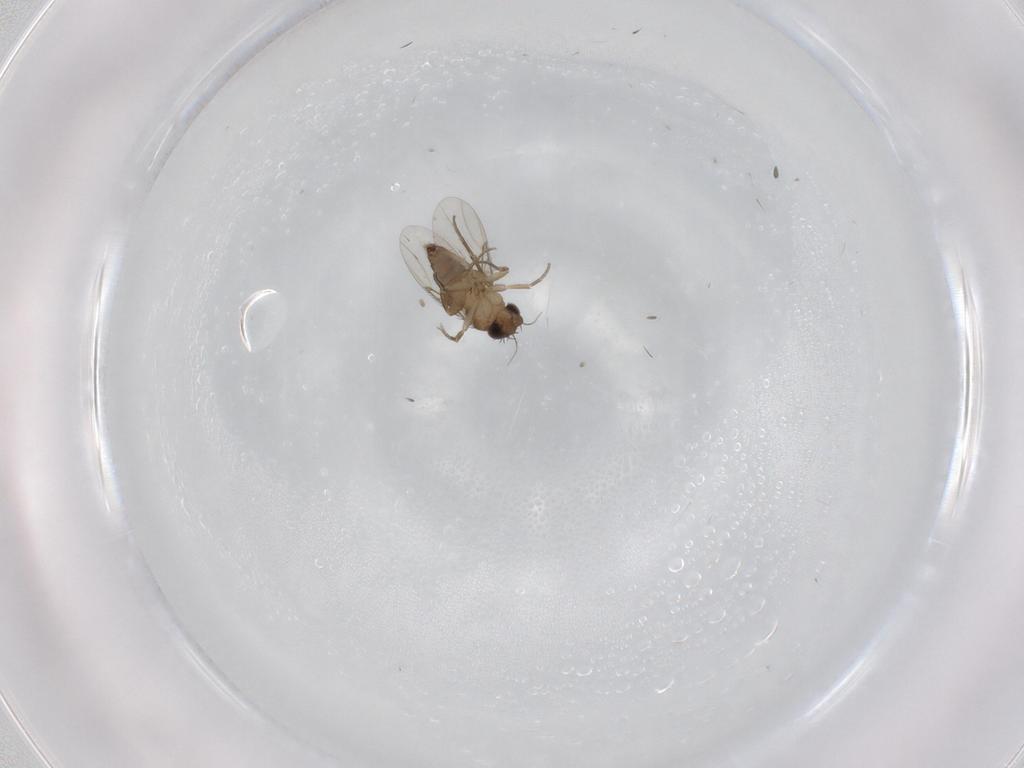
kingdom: Animalia
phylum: Arthropoda
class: Insecta
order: Diptera
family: Phoridae
